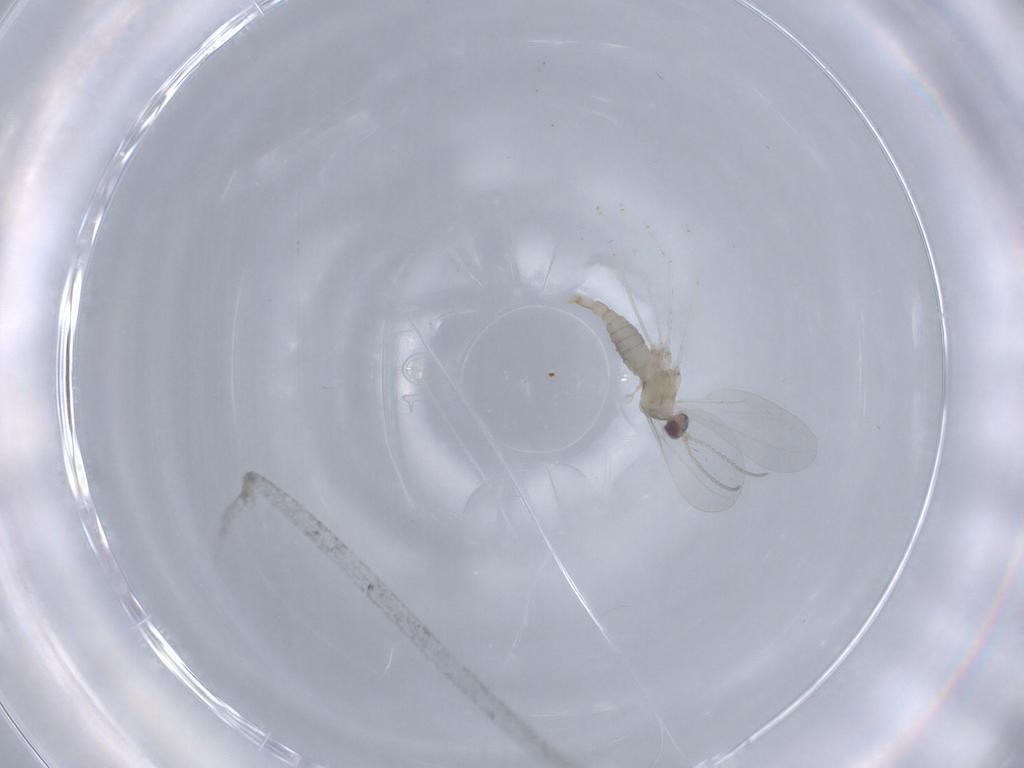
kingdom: Animalia
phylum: Arthropoda
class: Insecta
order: Diptera
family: Cecidomyiidae
